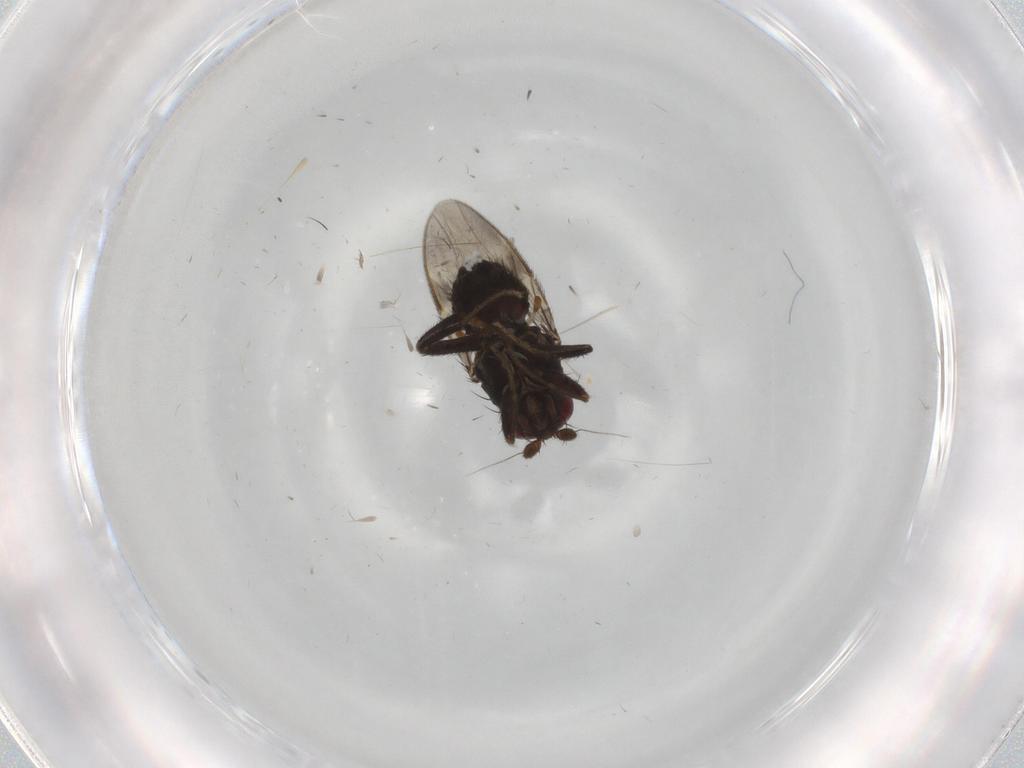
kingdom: Animalia
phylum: Arthropoda
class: Insecta
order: Diptera
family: Sphaeroceridae
